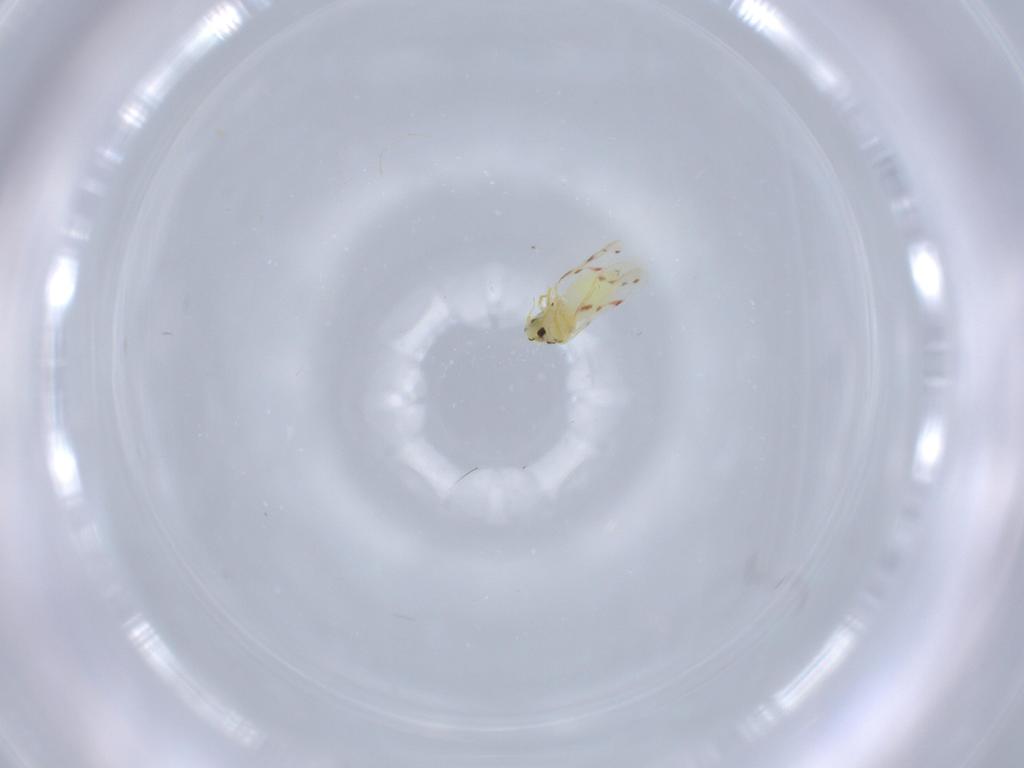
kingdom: Animalia
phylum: Arthropoda
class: Insecta
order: Hemiptera
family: Aleyrodidae
